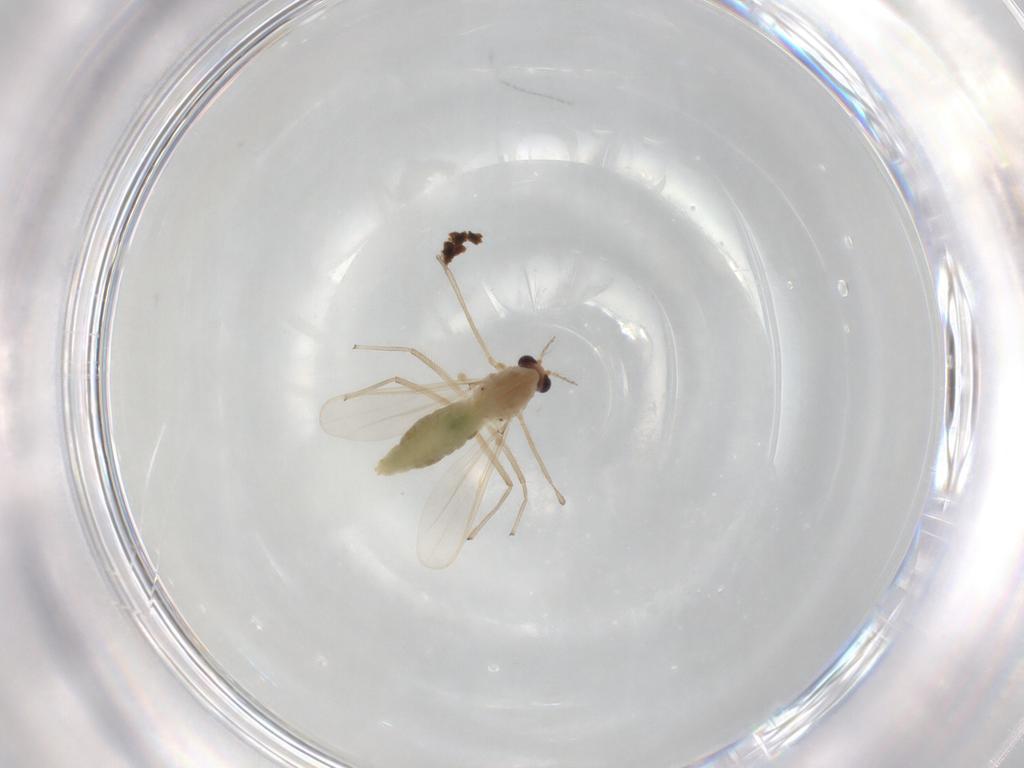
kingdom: Animalia
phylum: Arthropoda
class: Insecta
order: Diptera
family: Chironomidae
